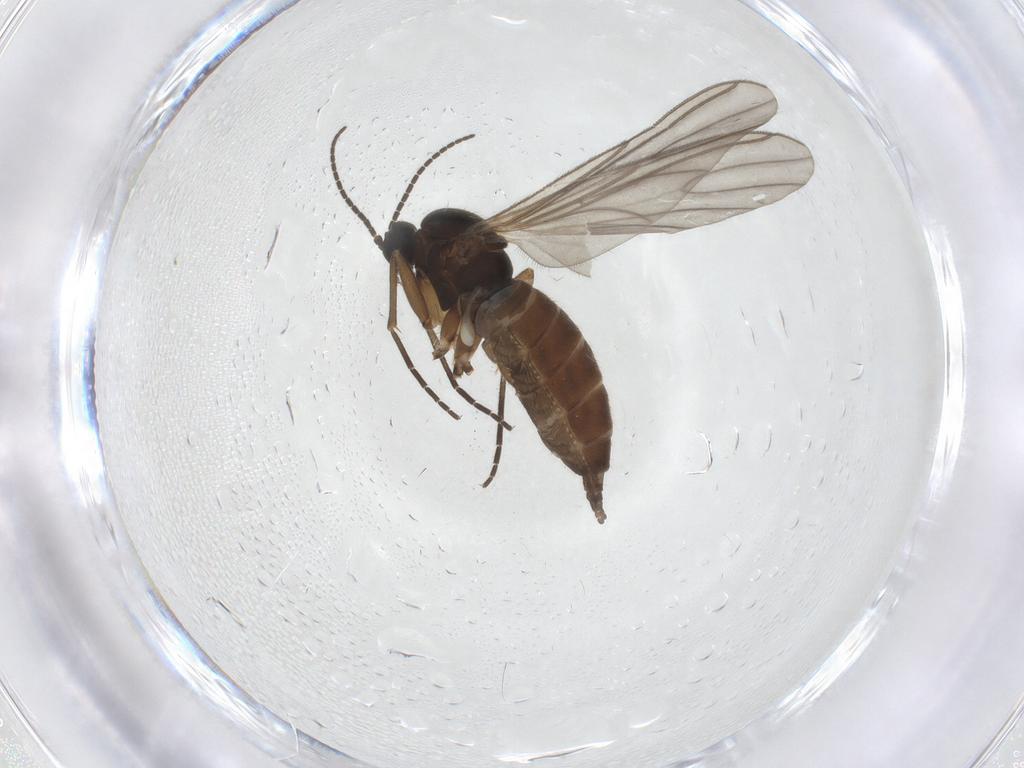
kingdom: Animalia
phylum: Arthropoda
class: Insecta
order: Diptera
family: Sciaridae
